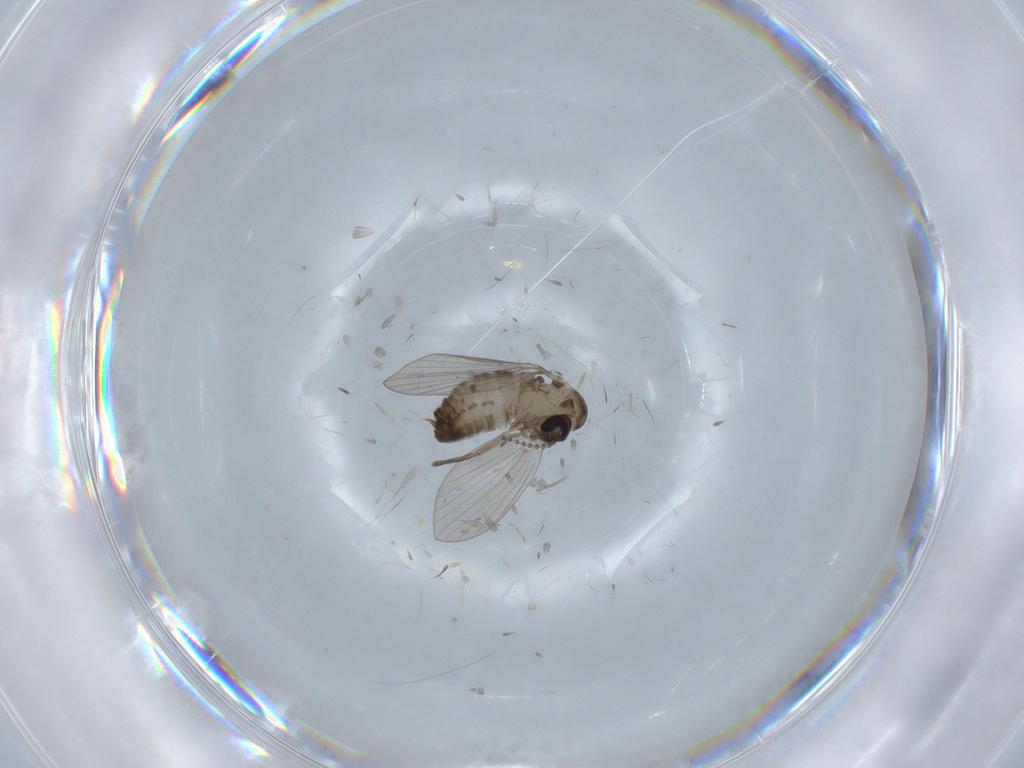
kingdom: Animalia
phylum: Arthropoda
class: Insecta
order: Diptera
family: Psychodidae
